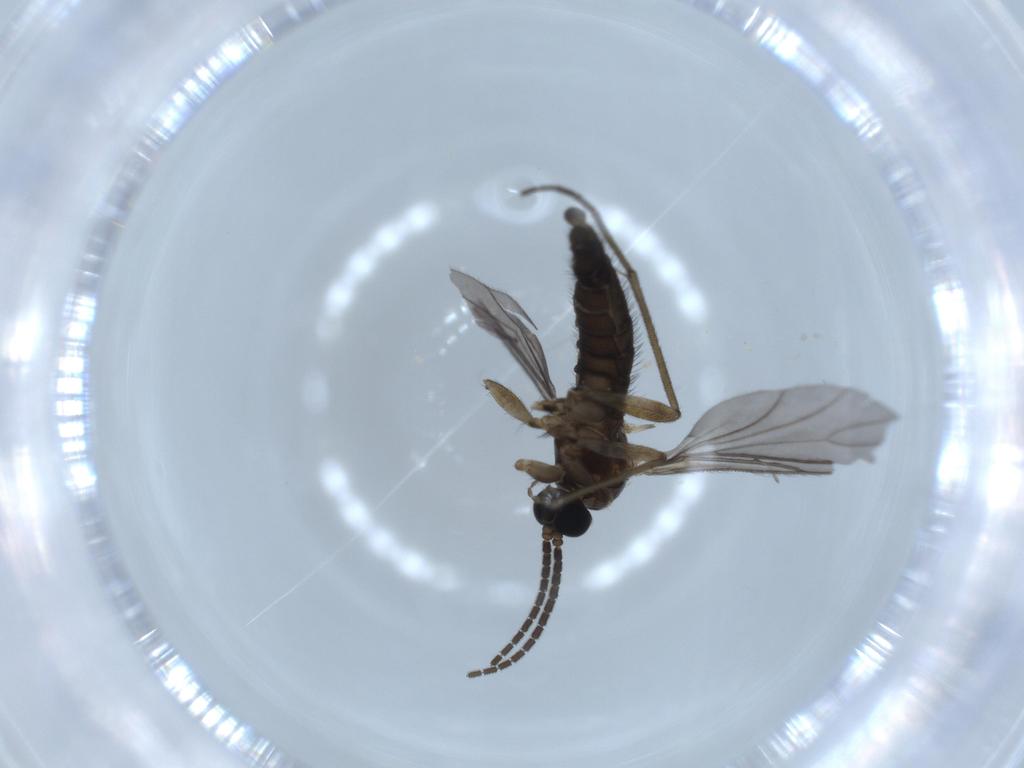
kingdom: Animalia
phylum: Arthropoda
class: Insecta
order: Diptera
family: Sciaridae
